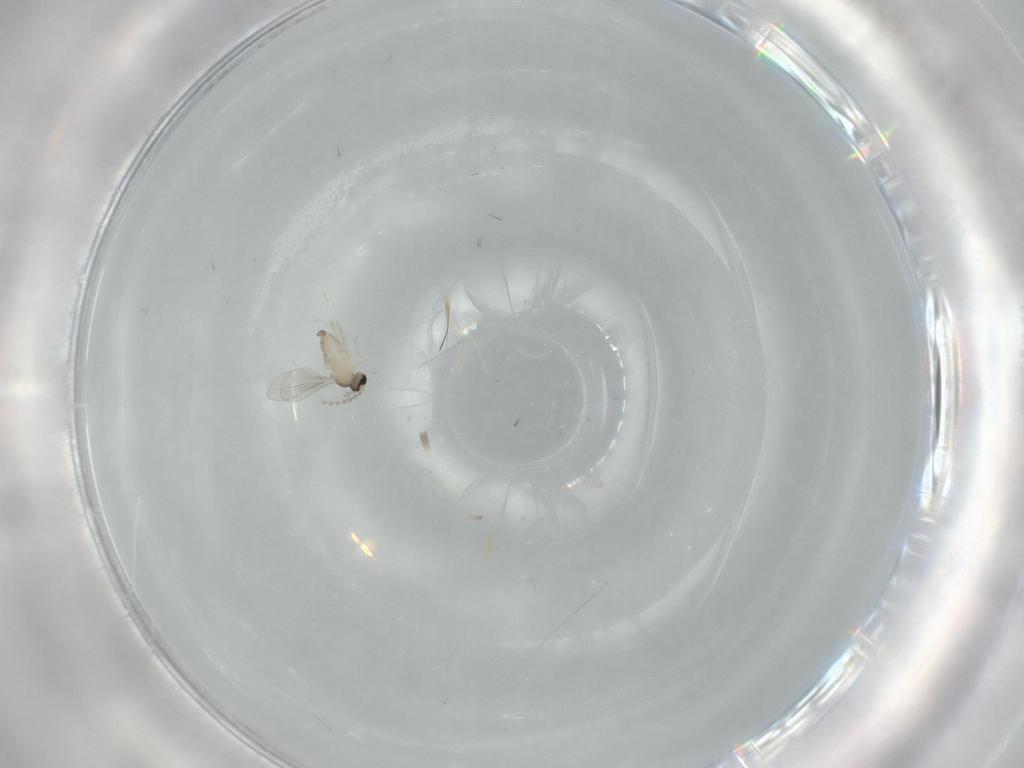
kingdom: Animalia
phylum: Arthropoda
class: Insecta
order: Diptera
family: Cecidomyiidae
